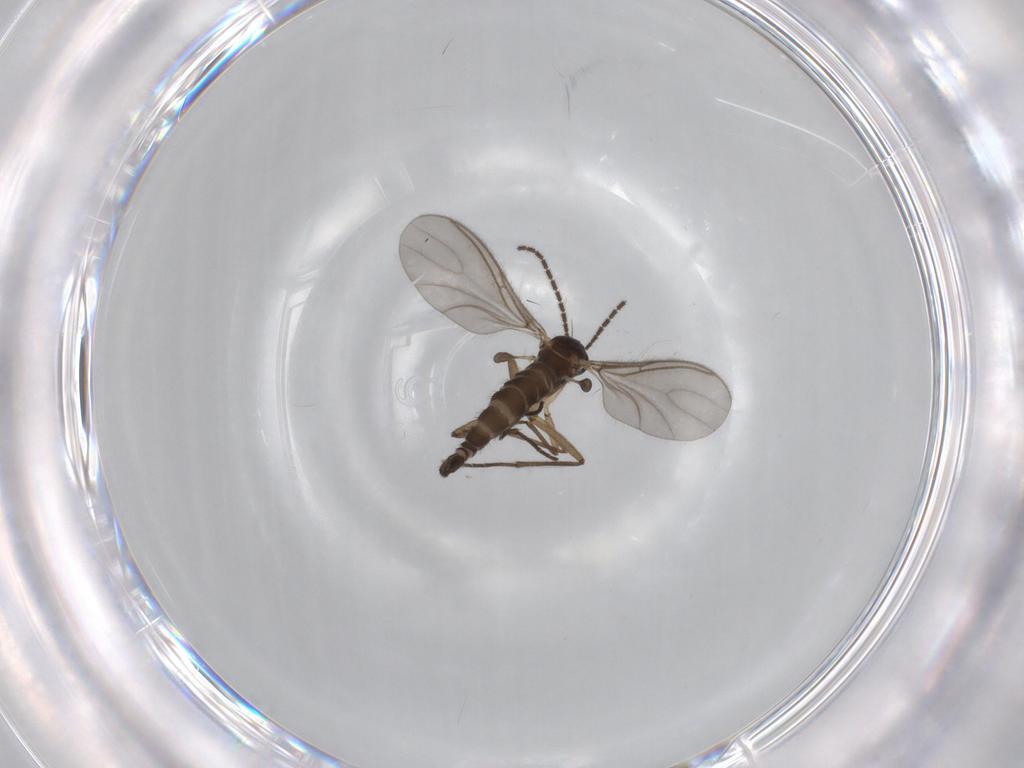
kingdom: Animalia
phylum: Arthropoda
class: Insecta
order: Diptera
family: Sciaridae
